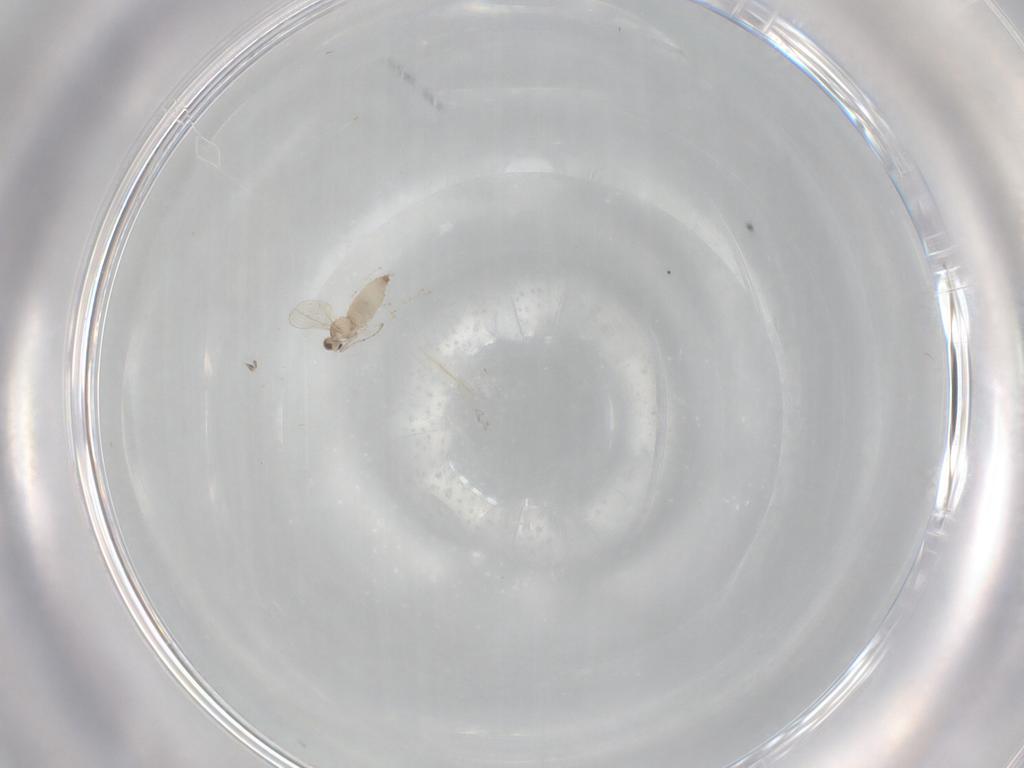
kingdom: Animalia
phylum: Arthropoda
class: Insecta
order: Diptera
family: Cecidomyiidae
